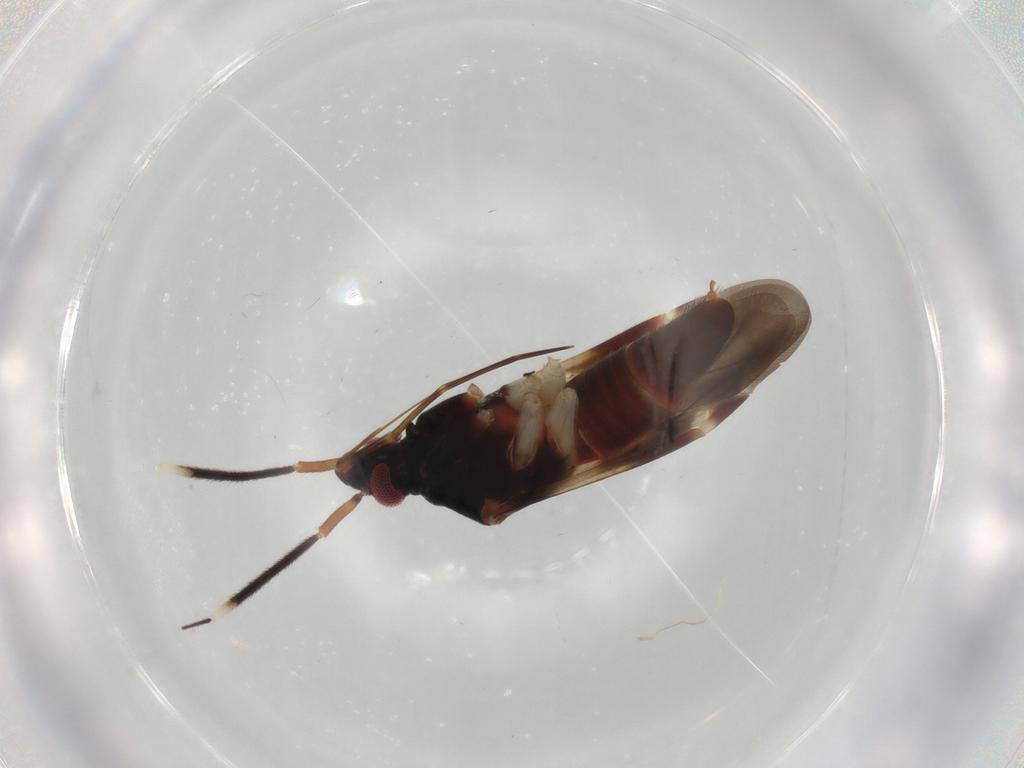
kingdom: Animalia
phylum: Arthropoda
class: Insecta
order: Hemiptera
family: Miridae
